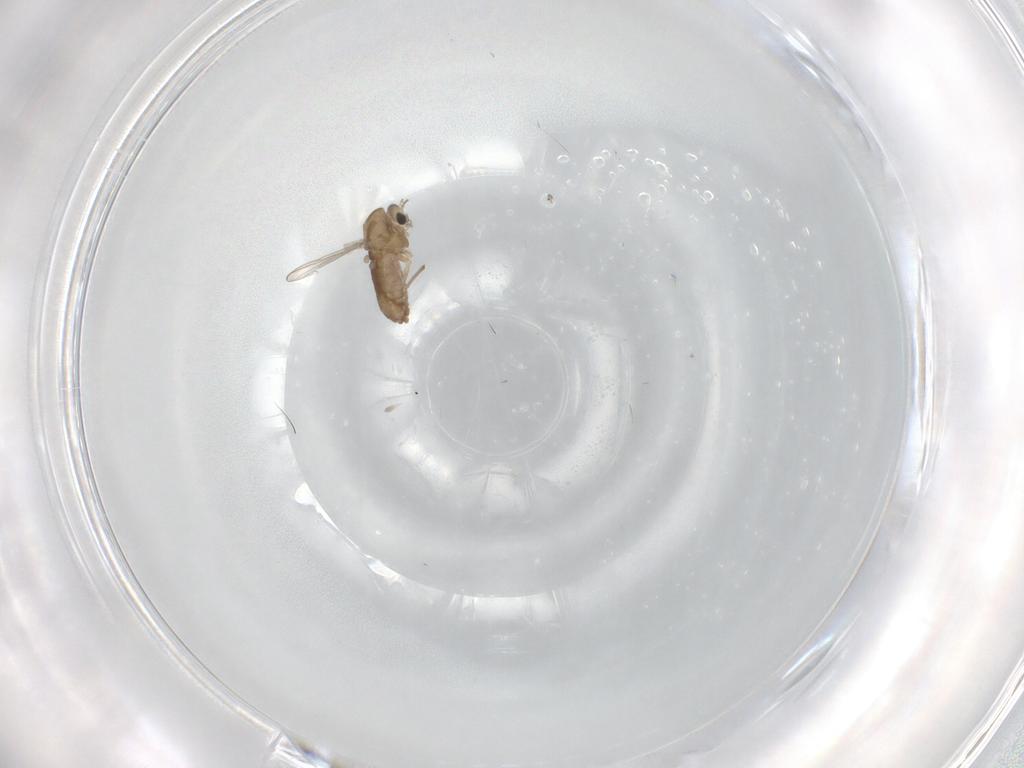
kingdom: Animalia
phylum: Arthropoda
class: Insecta
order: Diptera
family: Chironomidae
